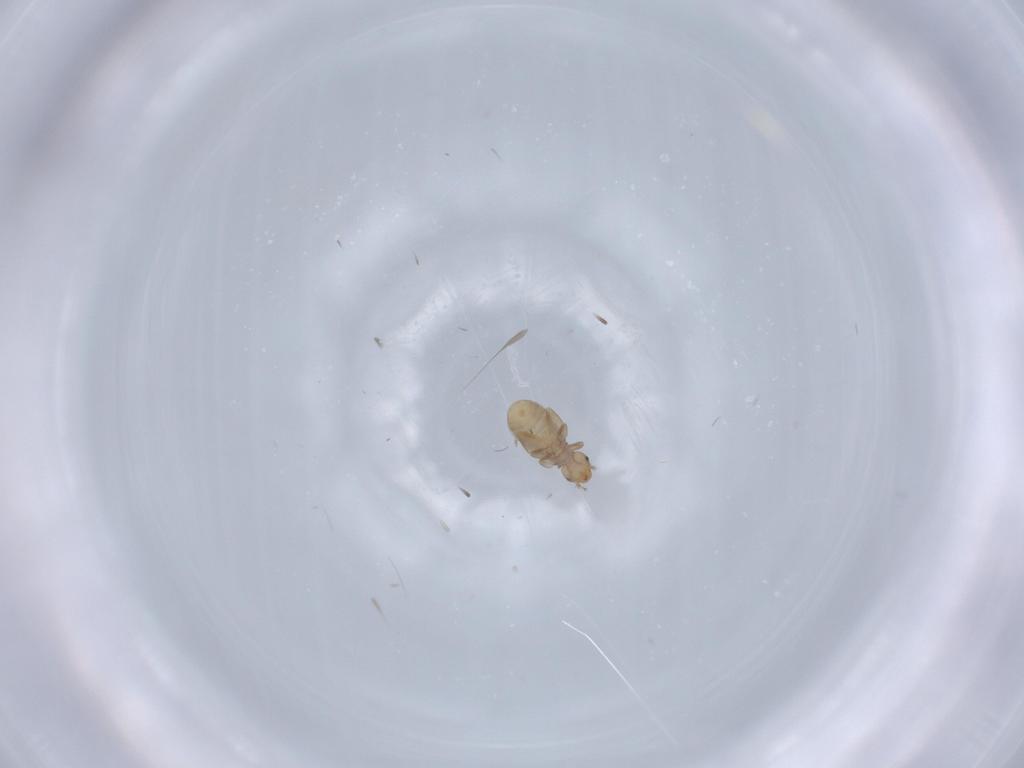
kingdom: Animalia
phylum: Arthropoda
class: Insecta
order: Psocodea
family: Liposcelididae
